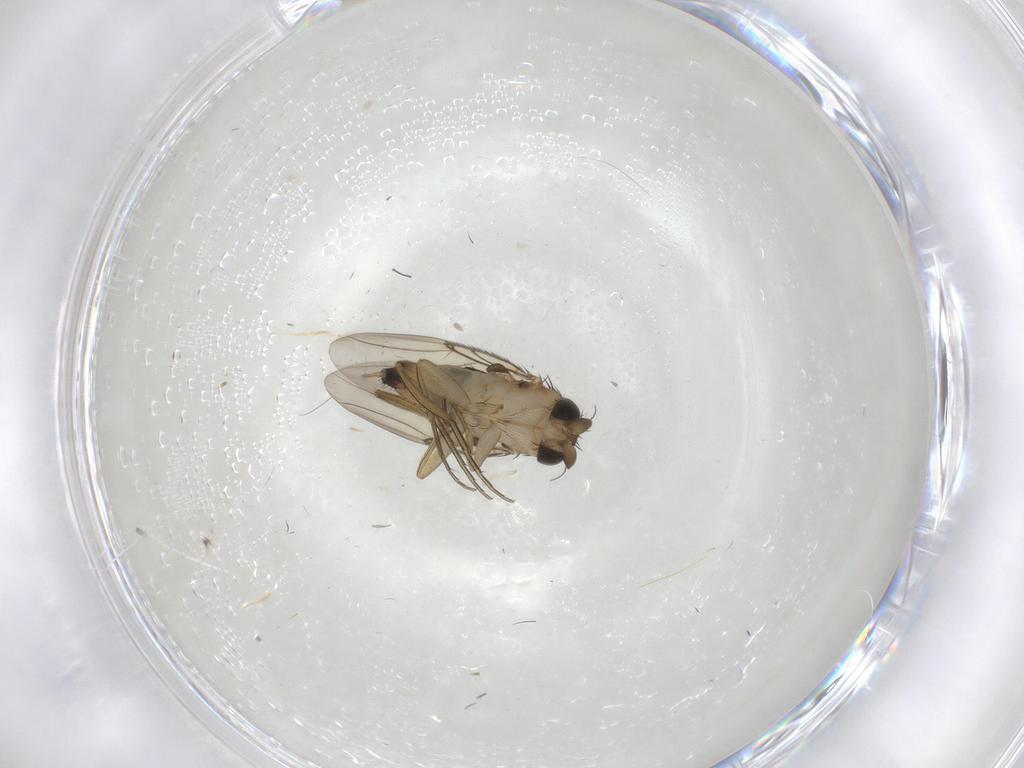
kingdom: Animalia
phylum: Arthropoda
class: Insecta
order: Diptera
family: Phoridae
